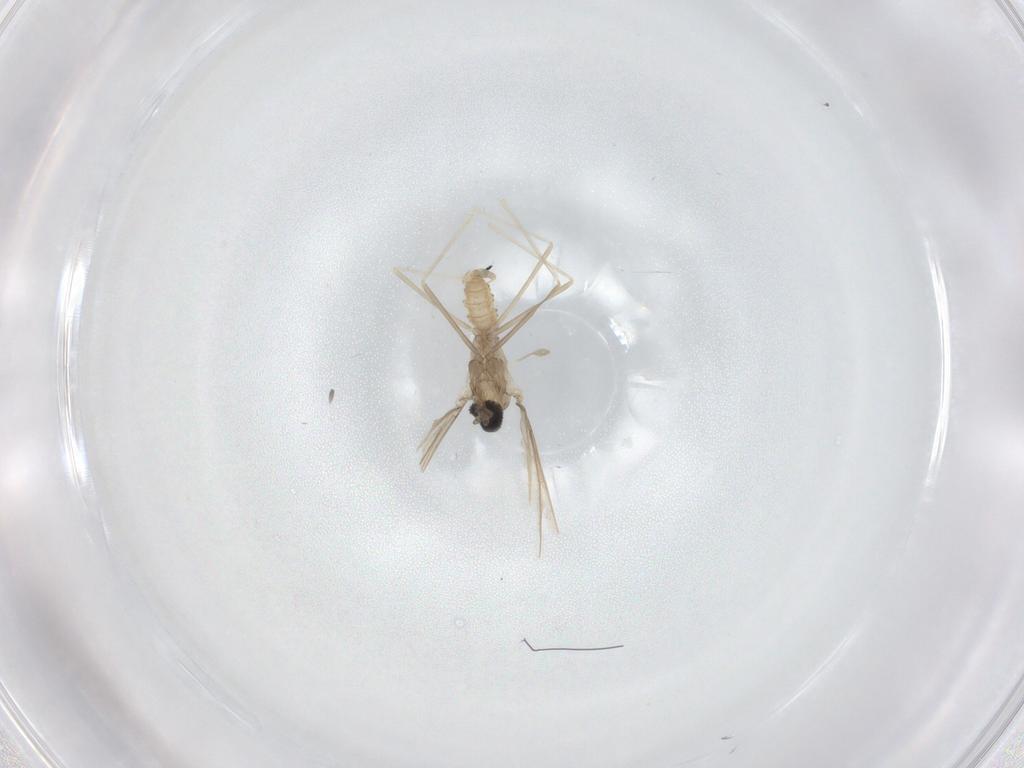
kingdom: Animalia
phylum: Arthropoda
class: Insecta
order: Diptera
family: Cecidomyiidae
